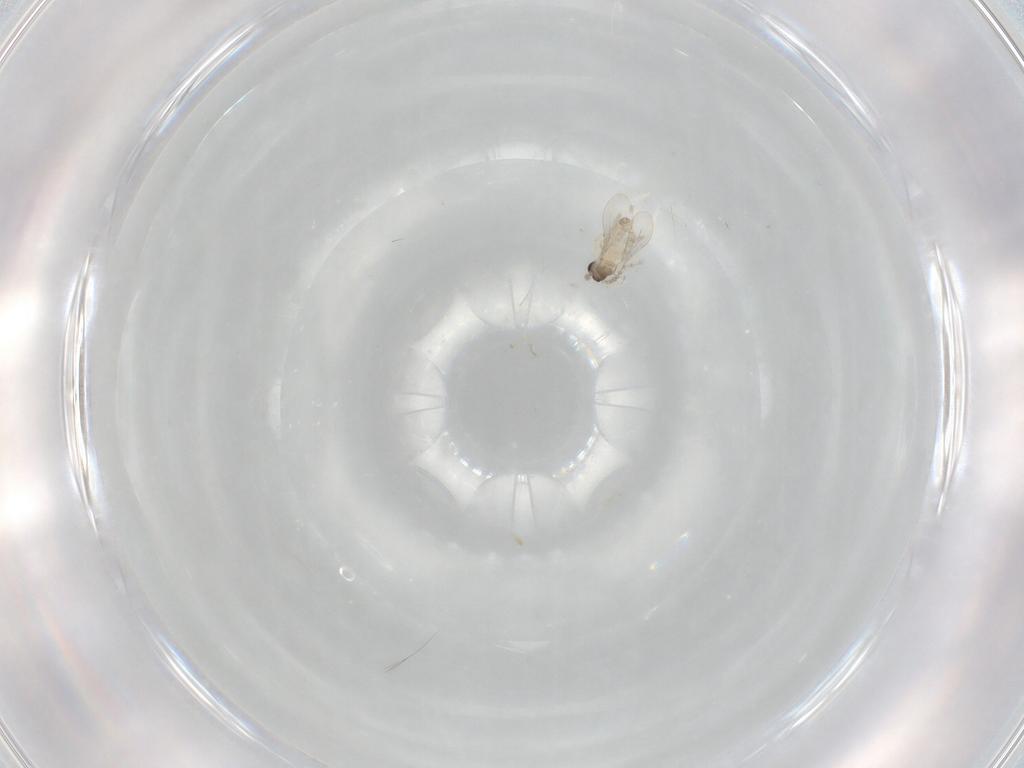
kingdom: Animalia
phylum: Arthropoda
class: Insecta
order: Diptera
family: Cecidomyiidae
